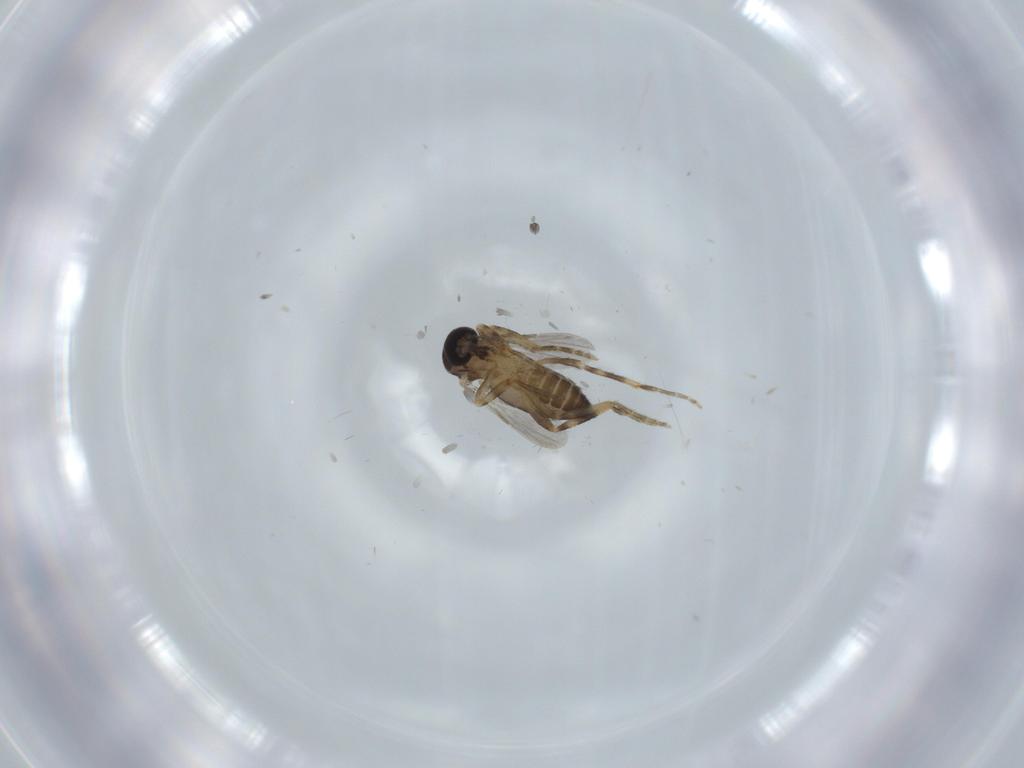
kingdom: Animalia
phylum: Arthropoda
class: Insecta
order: Diptera
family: Ceratopogonidae
